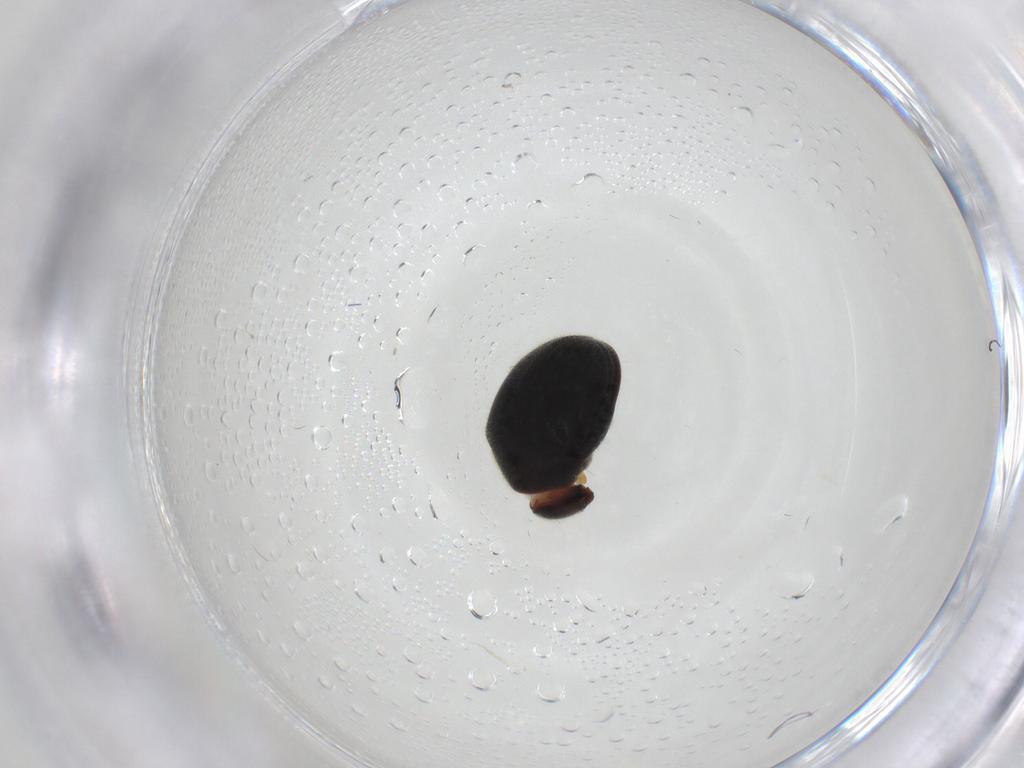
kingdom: Animalia
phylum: Arthropoda
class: Insecta
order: Coleoptera
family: Ptinidae
